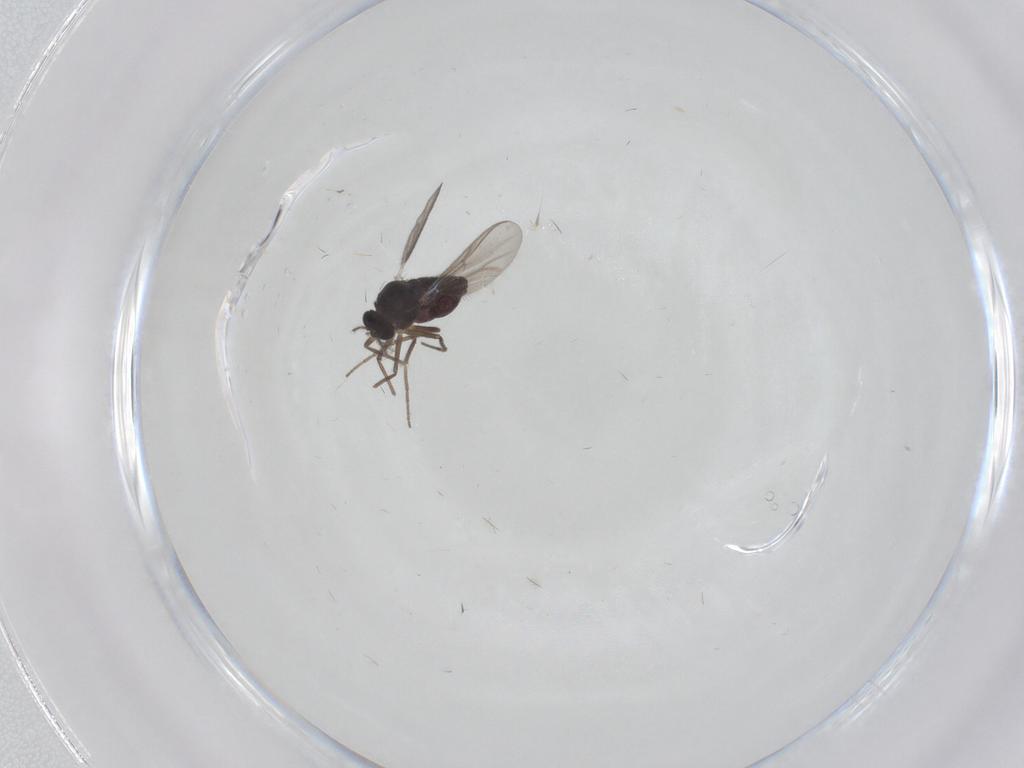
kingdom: Animalia
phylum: Arthropoda
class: Insecta
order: Diptera
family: Chironomidae
